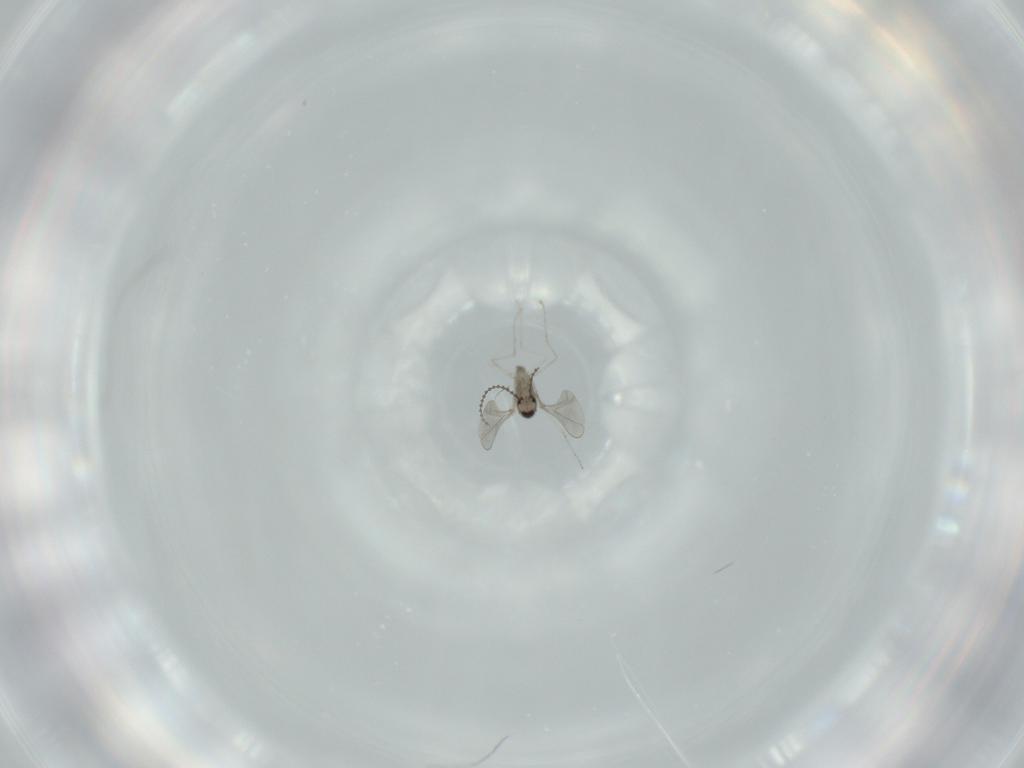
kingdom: Animalia
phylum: Arthropoda
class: Insecta
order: Diptera
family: Cecidomyiidae
